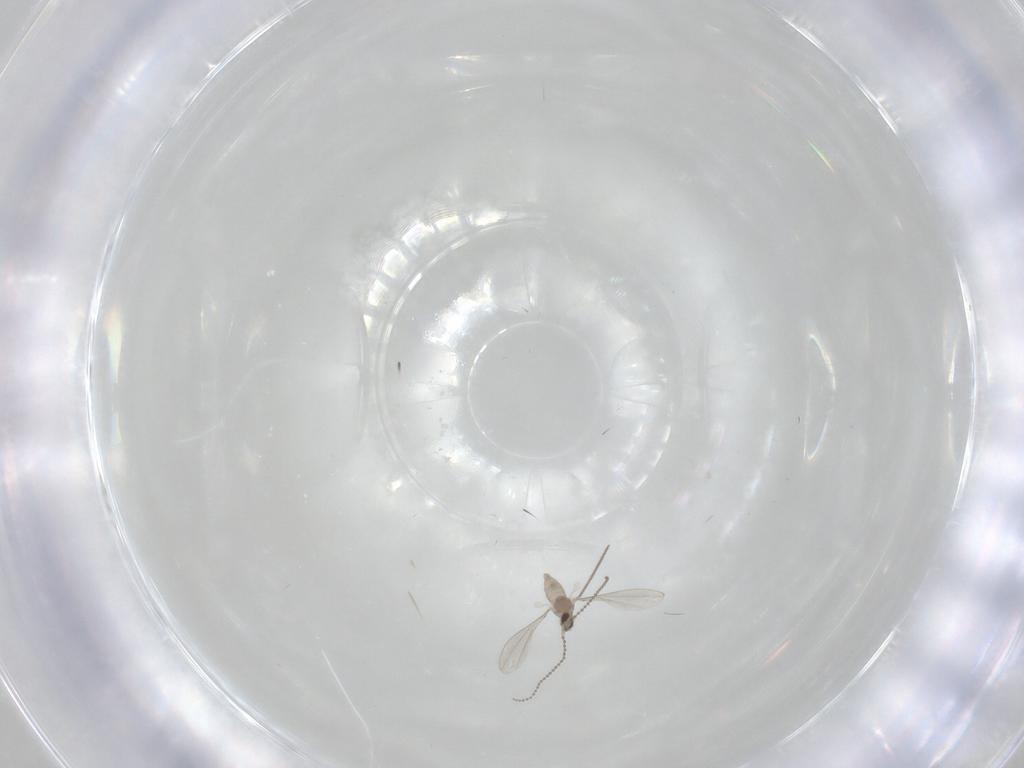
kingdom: Animalia
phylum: Arthropoda
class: Insecta
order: Diptera
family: Cecidomyiidae
